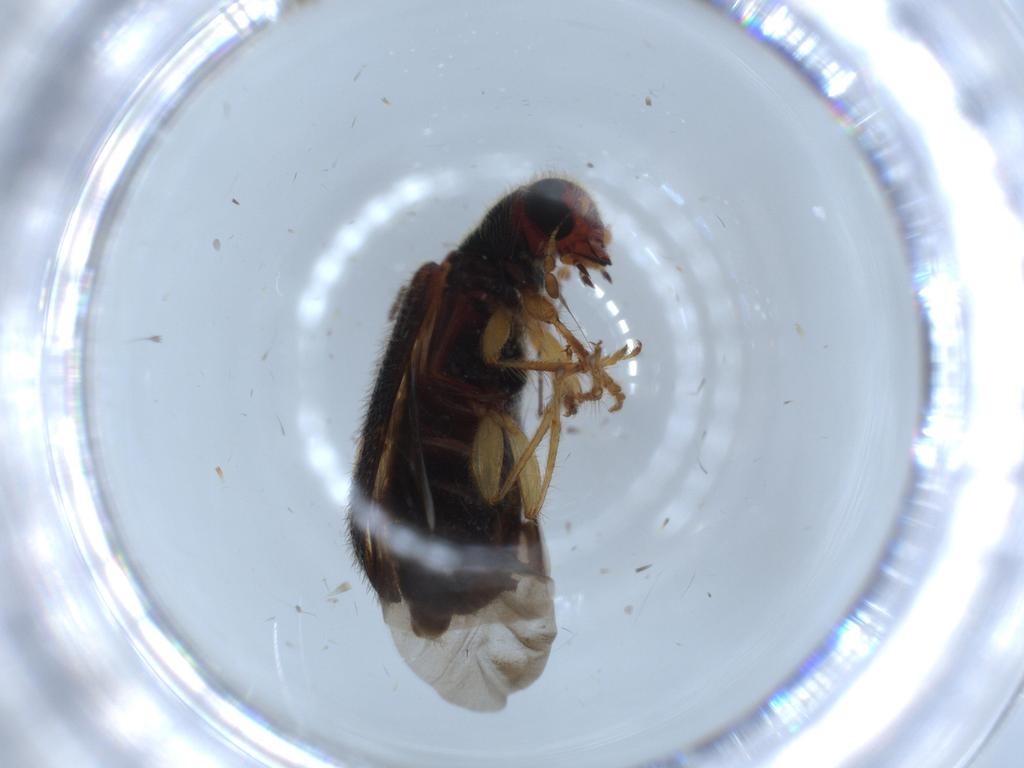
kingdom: Animalia
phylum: Arthropoda
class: Insecta
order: Coleoptera
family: Cleridae
